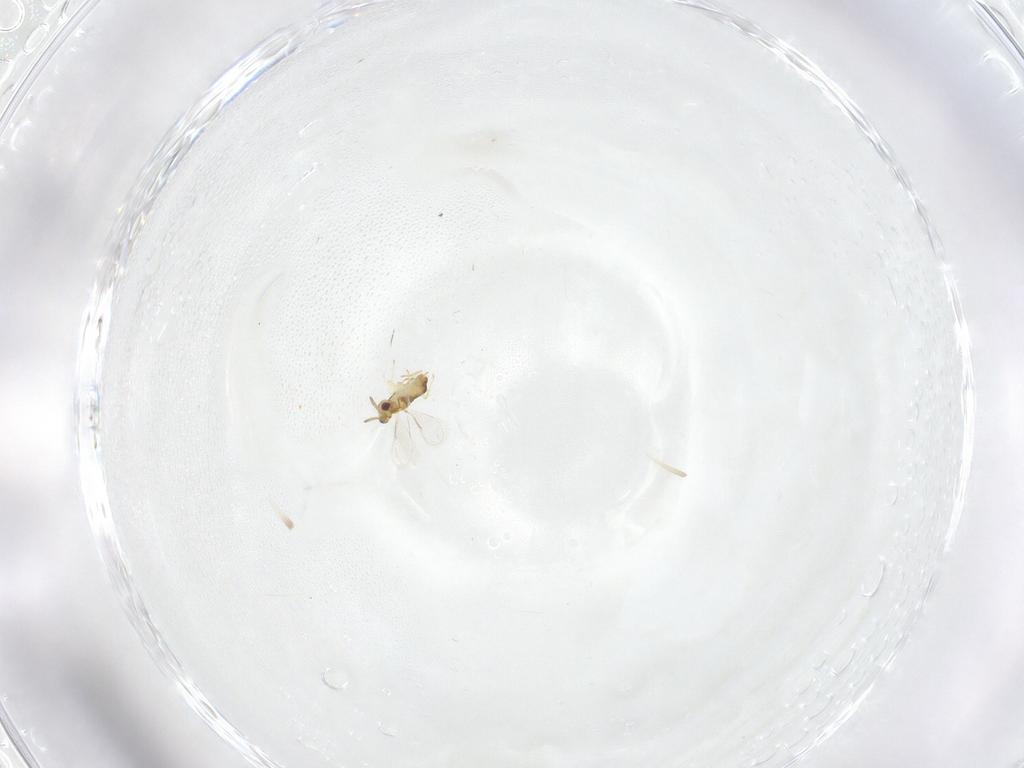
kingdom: Animalia
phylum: Arthropoda
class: Insecta
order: Hymenoptera
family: Aphelinidae
